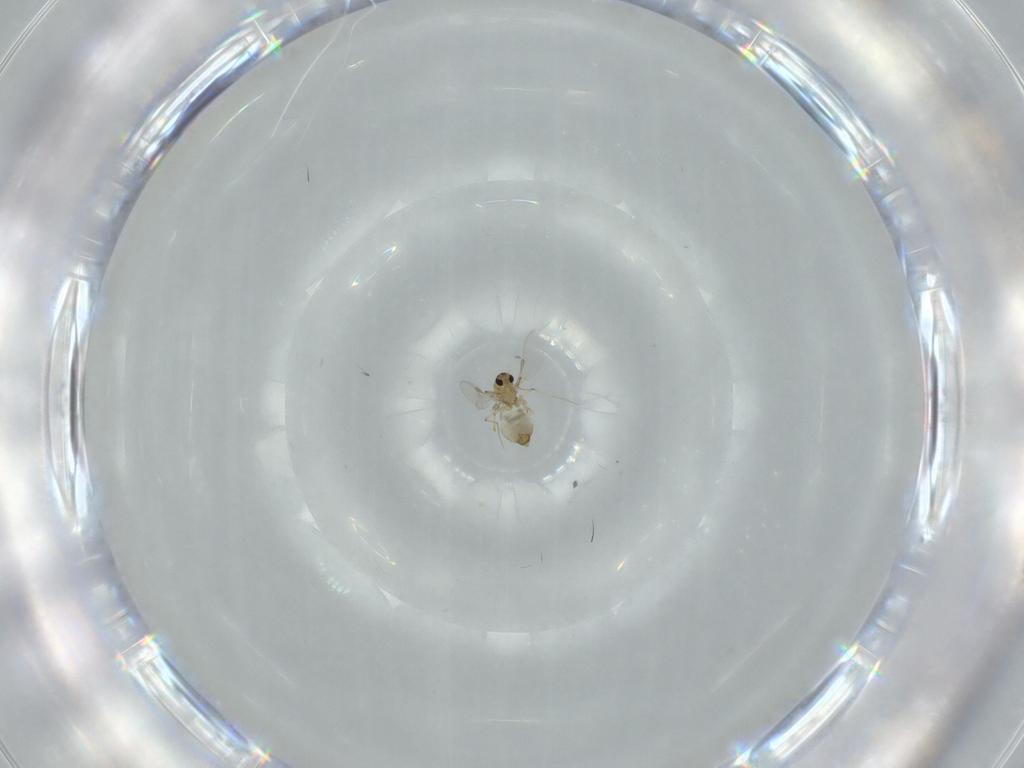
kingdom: Animalia
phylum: Arthropoda
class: Insecta
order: Diptera
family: Chironomidae
